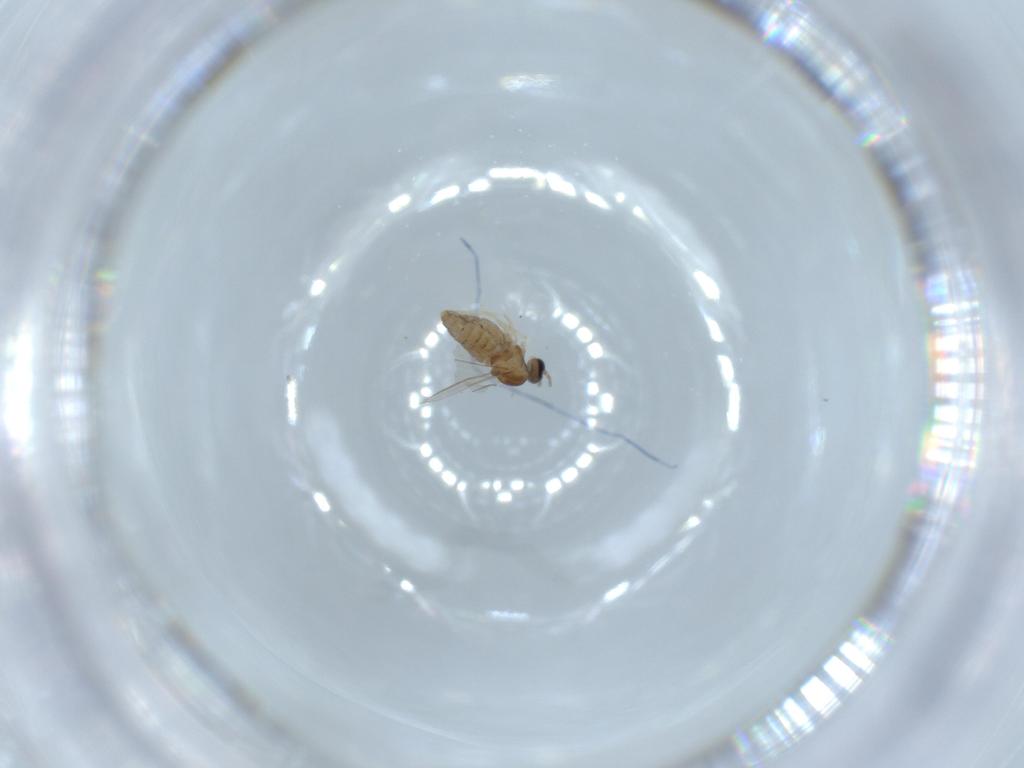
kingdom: Animalia
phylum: Arthropoda
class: Insecta
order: Diptera
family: Cecidomyiidae
